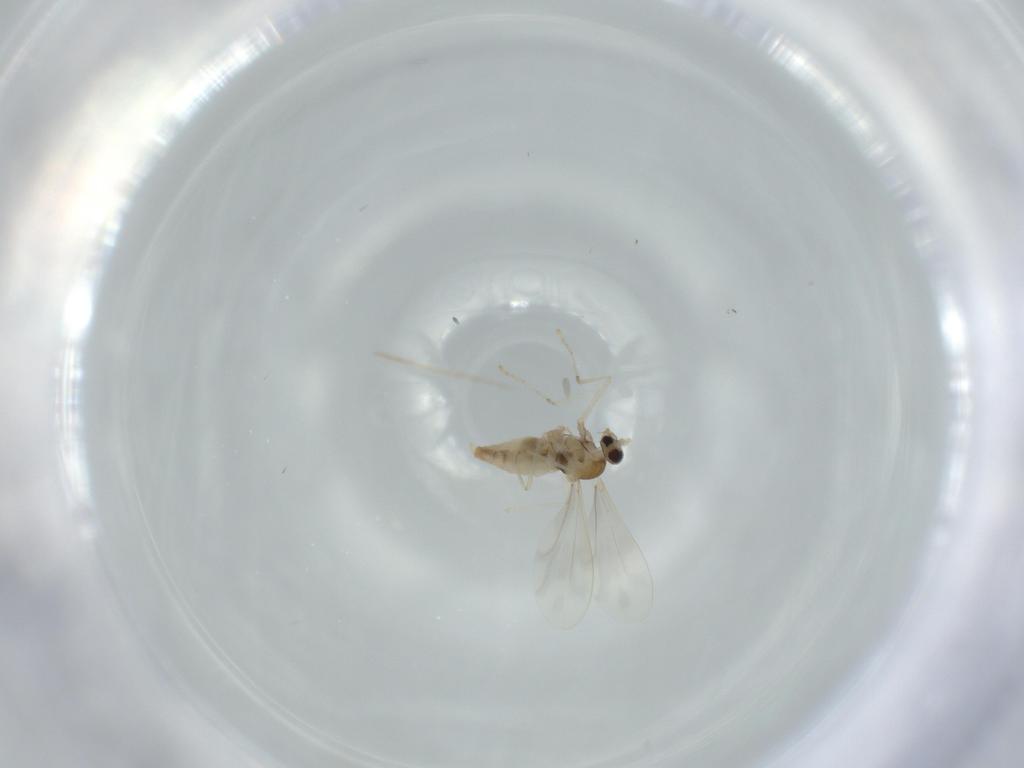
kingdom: Animalia
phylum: Arthropoda
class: Insecta
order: Diptera
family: Cecidomyiidae
